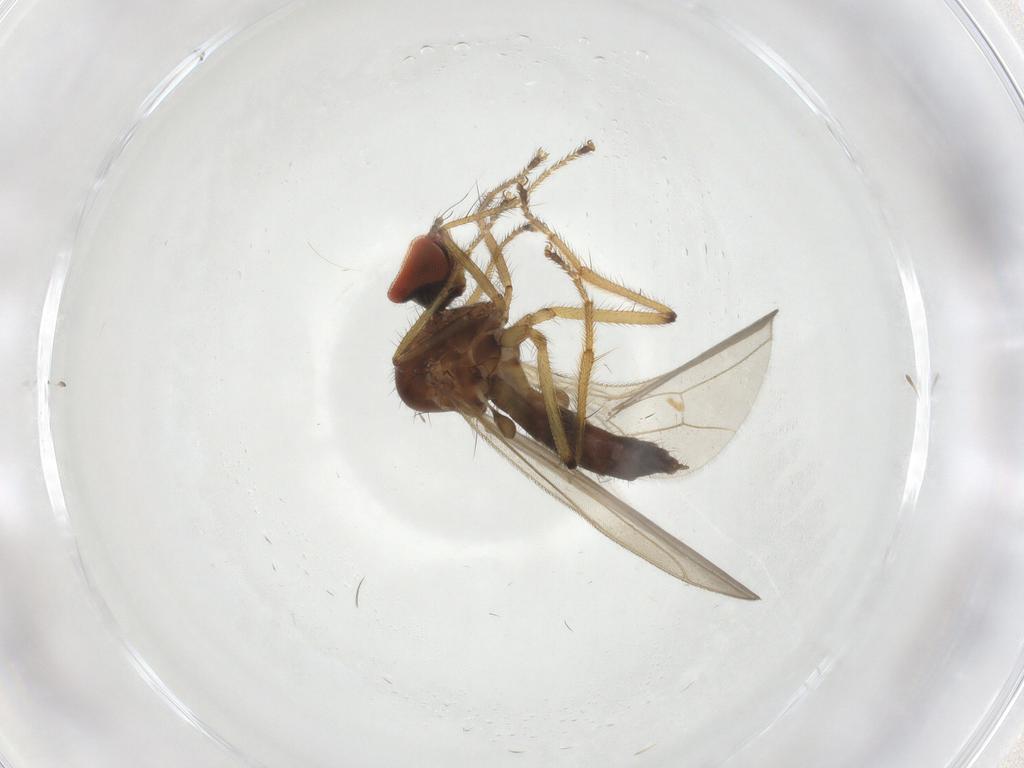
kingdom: Animalia
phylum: Arthropoda
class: Insecta
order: Diptera
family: Hybotidae
